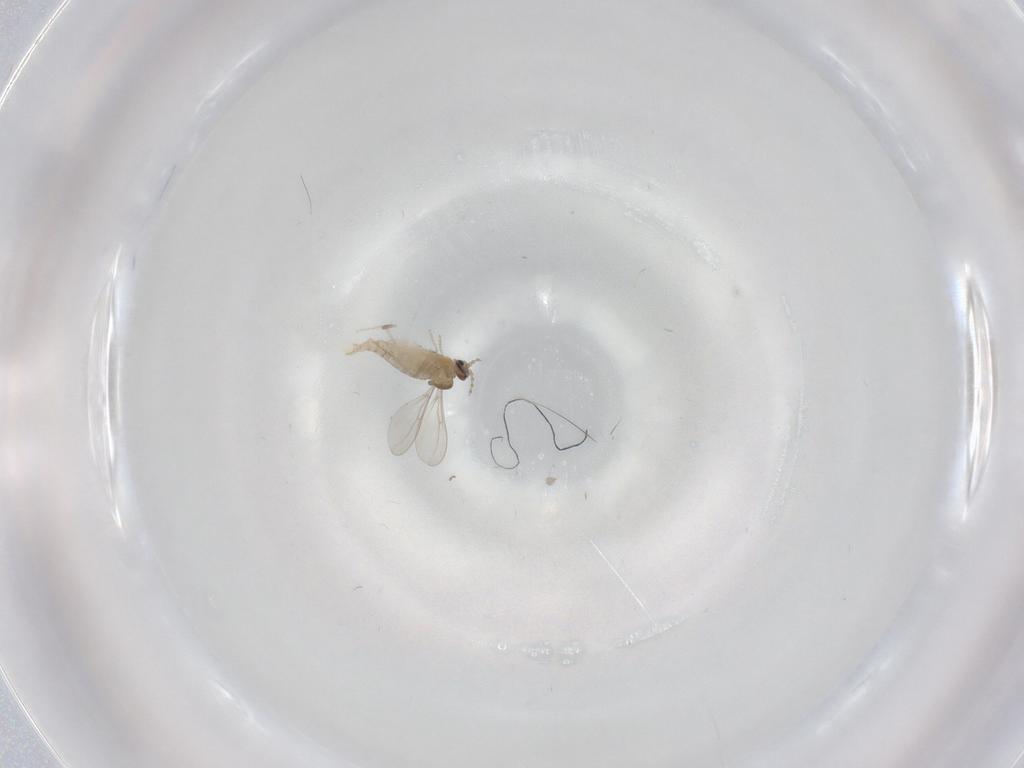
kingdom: Animalia
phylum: Arthropoda
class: Insecta
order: Diptera
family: Cecidomyiidae
